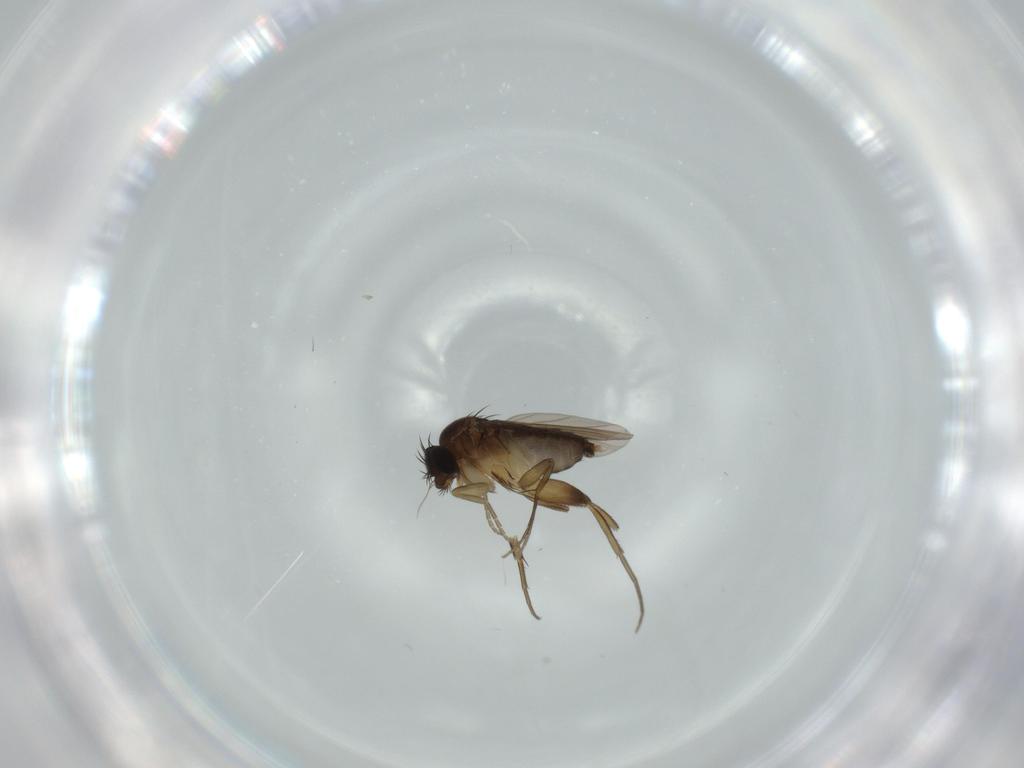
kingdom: Animalia
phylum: Arthropoda
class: Insecta
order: Diptera
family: Phoridae
